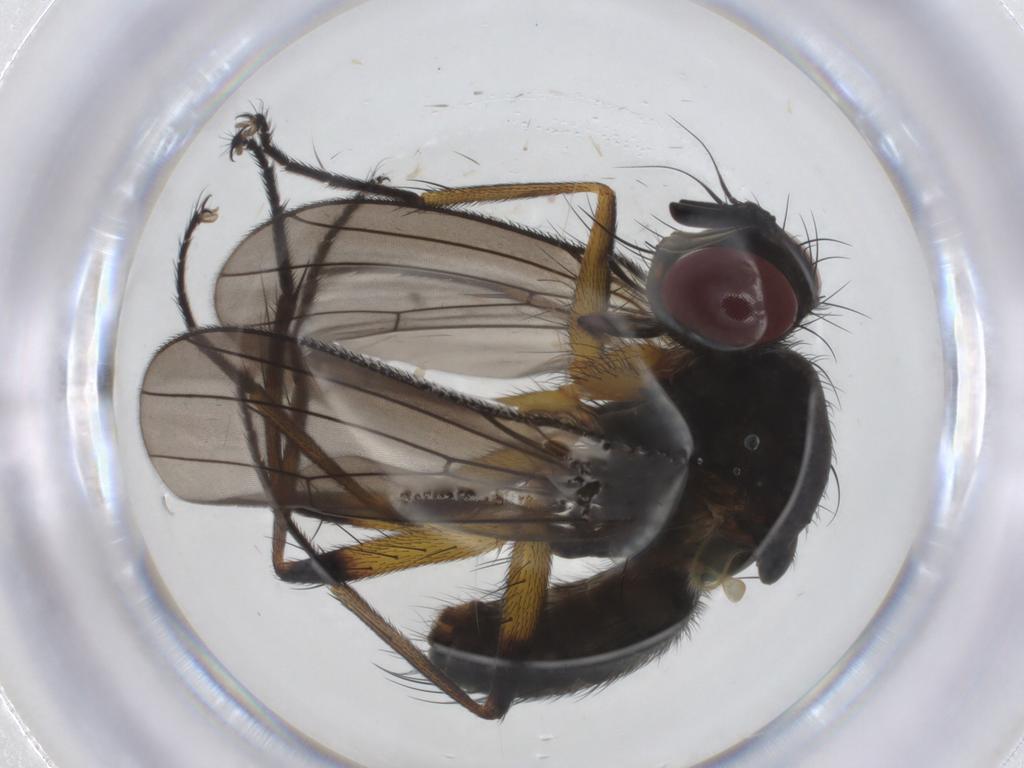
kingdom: Animalia
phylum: Arthropoda
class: Insecta
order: Diptera
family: Muscidae
